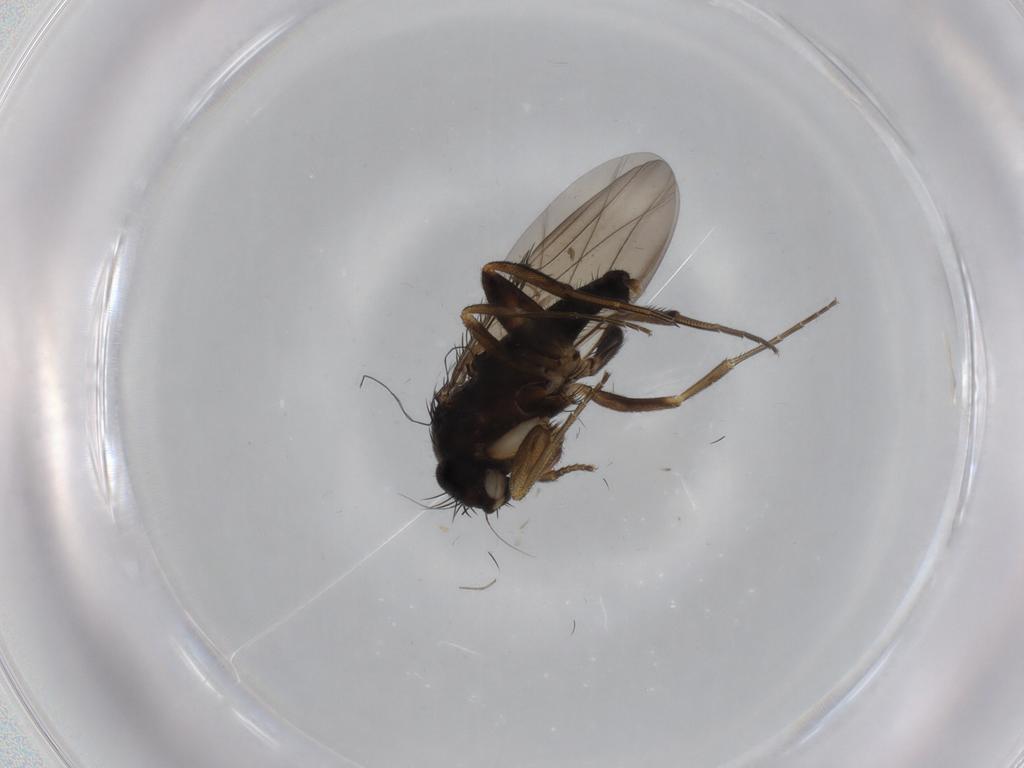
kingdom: Animalia
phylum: Arthropoda
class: Insecta
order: Diptera
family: Phoridae
